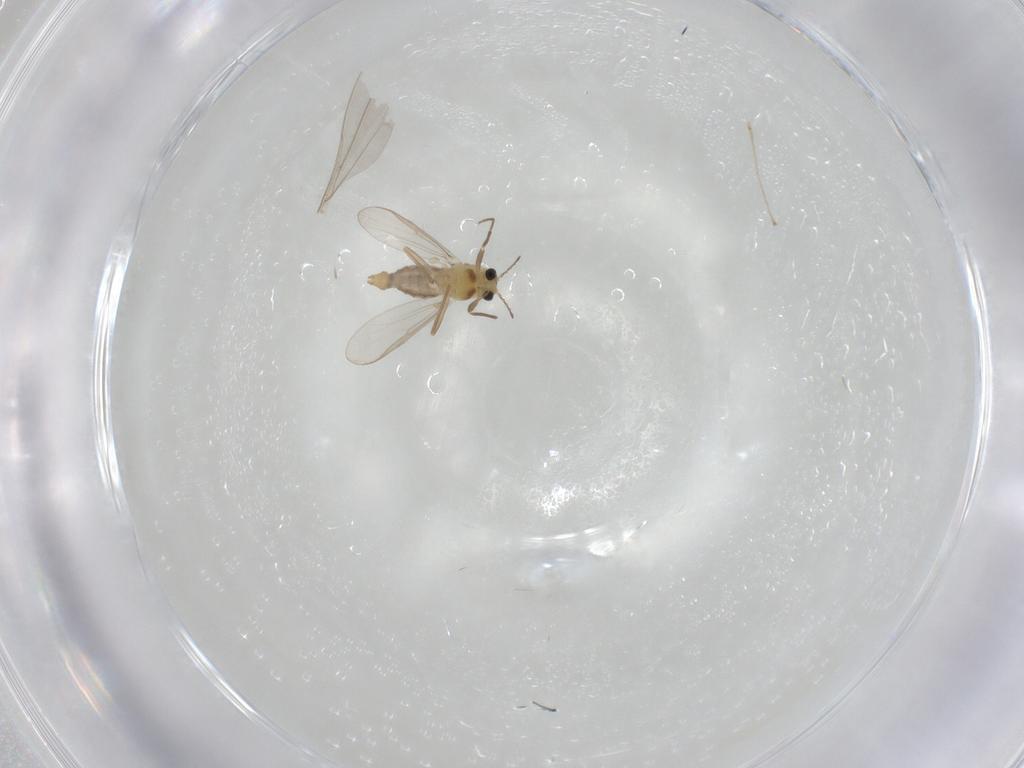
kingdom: Animalia
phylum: Arthropoda
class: Insecta
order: Diptera
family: Cecidomyiidae
